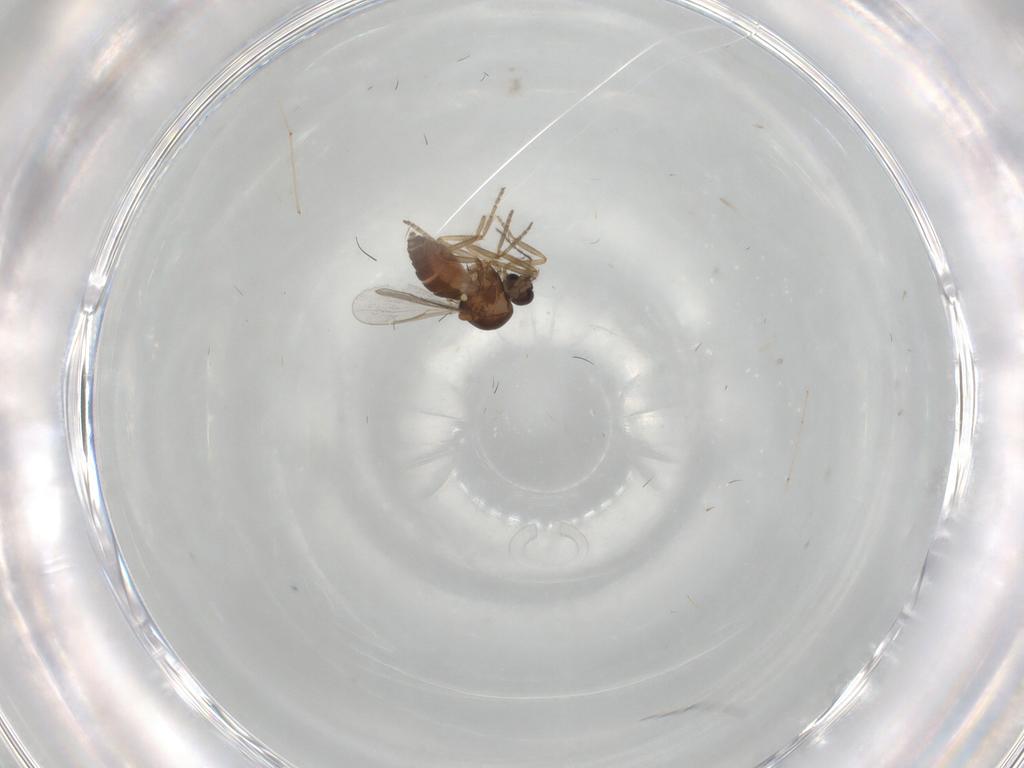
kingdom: Animalia
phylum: Arthropoda
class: Insecta
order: Diptera
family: Cecidomyiidae
